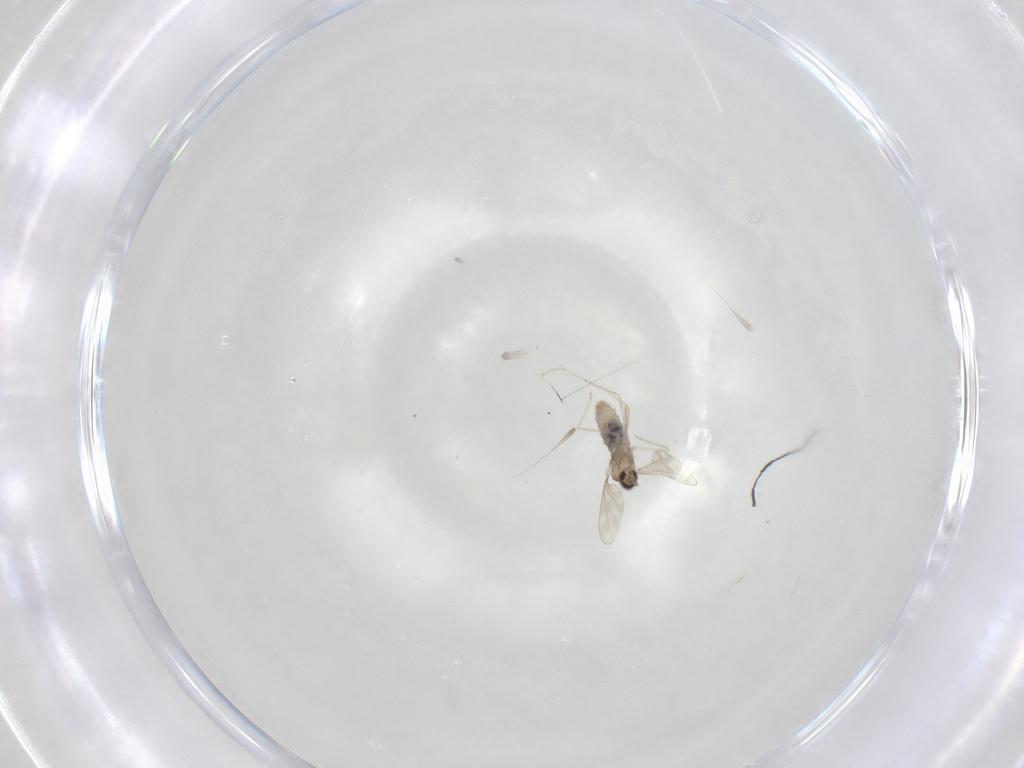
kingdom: Animalia
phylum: Arthropoda
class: Insecta
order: Diptera
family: Cecidomyiidae
